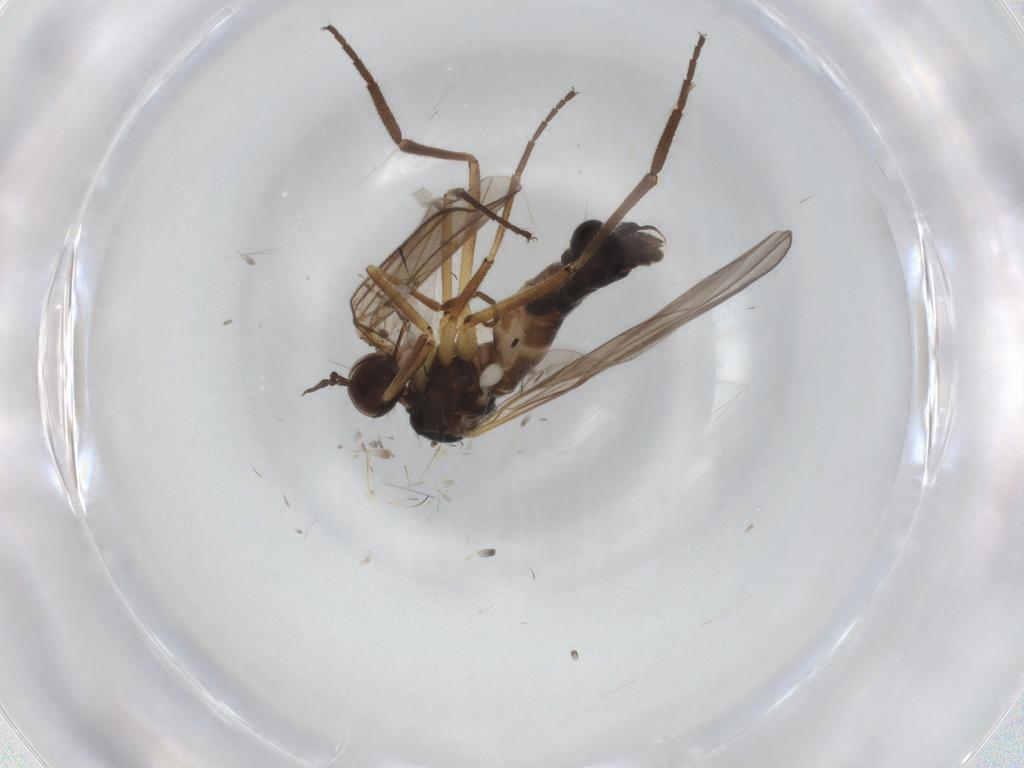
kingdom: Animalia
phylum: Arthropoda
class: Insecta
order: Diptera
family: Empididae
